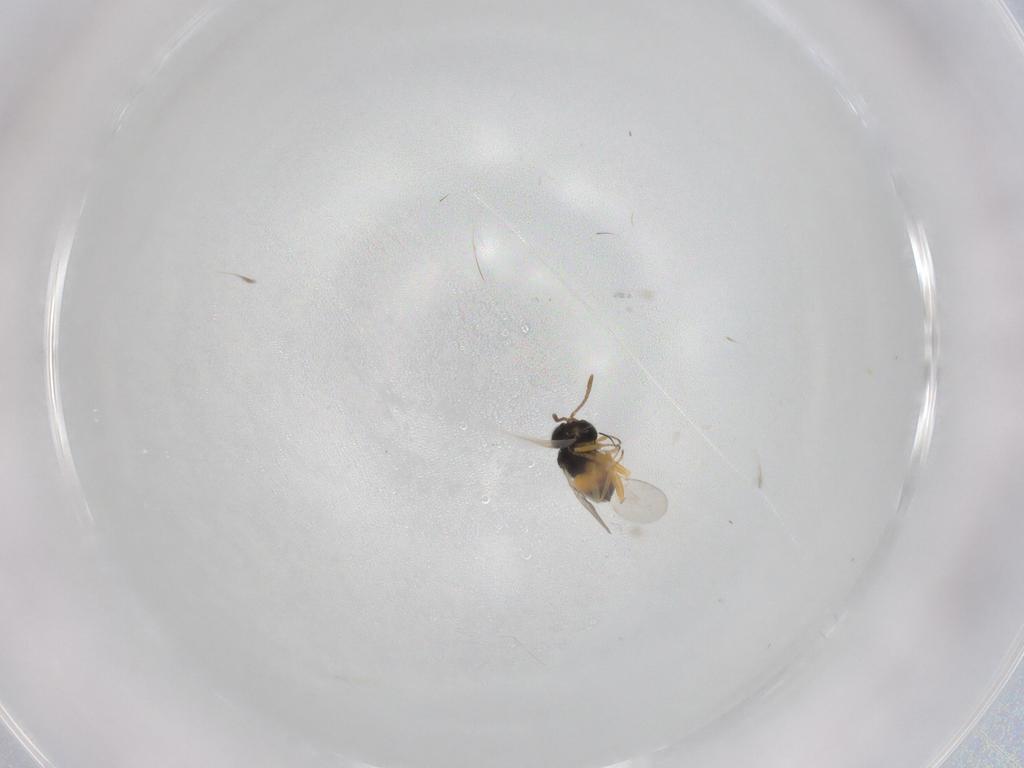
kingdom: Animalia
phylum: Arthropoda
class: Insecta
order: Hymenoptera
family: Encyrtidae
